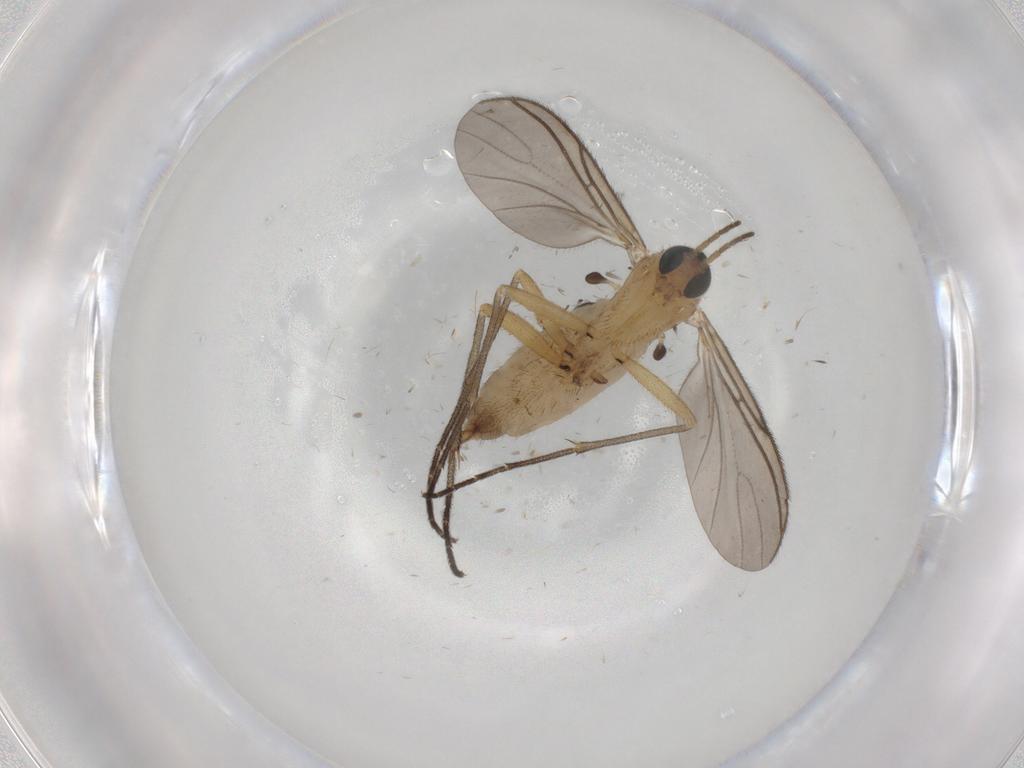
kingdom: Animalia
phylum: Arthropoda
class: Insecta
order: Diptera
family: Sciaridae
